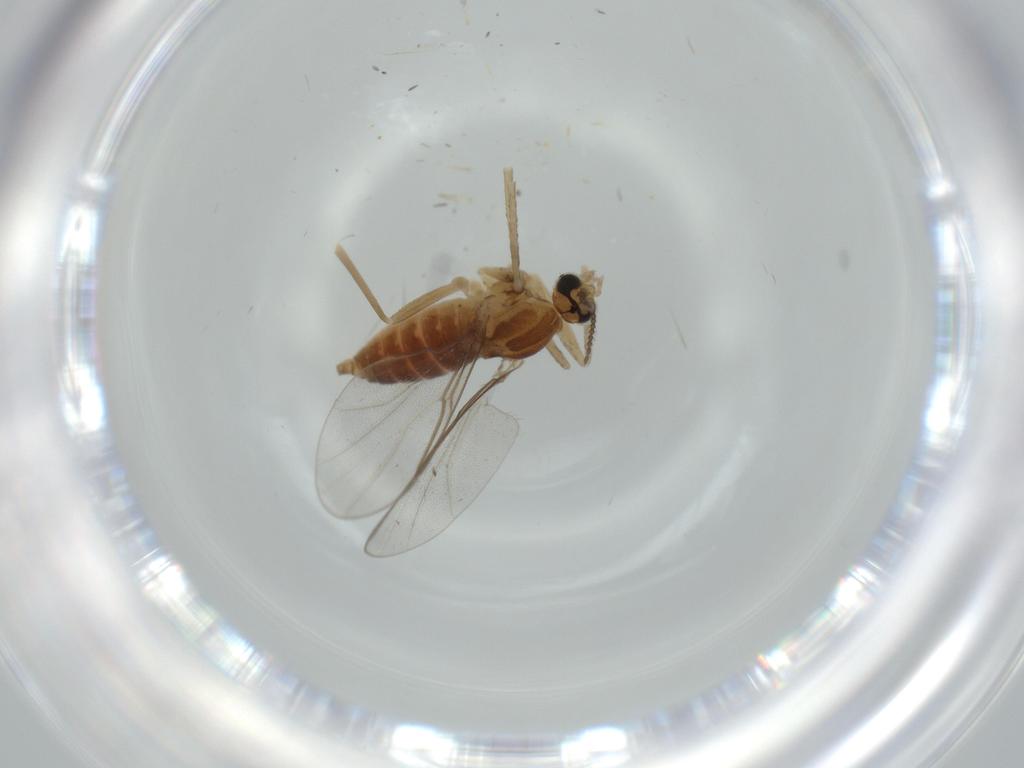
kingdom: Animalia
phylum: Arthropoda
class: Insecta
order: Diptera
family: Cecidomyiidae
